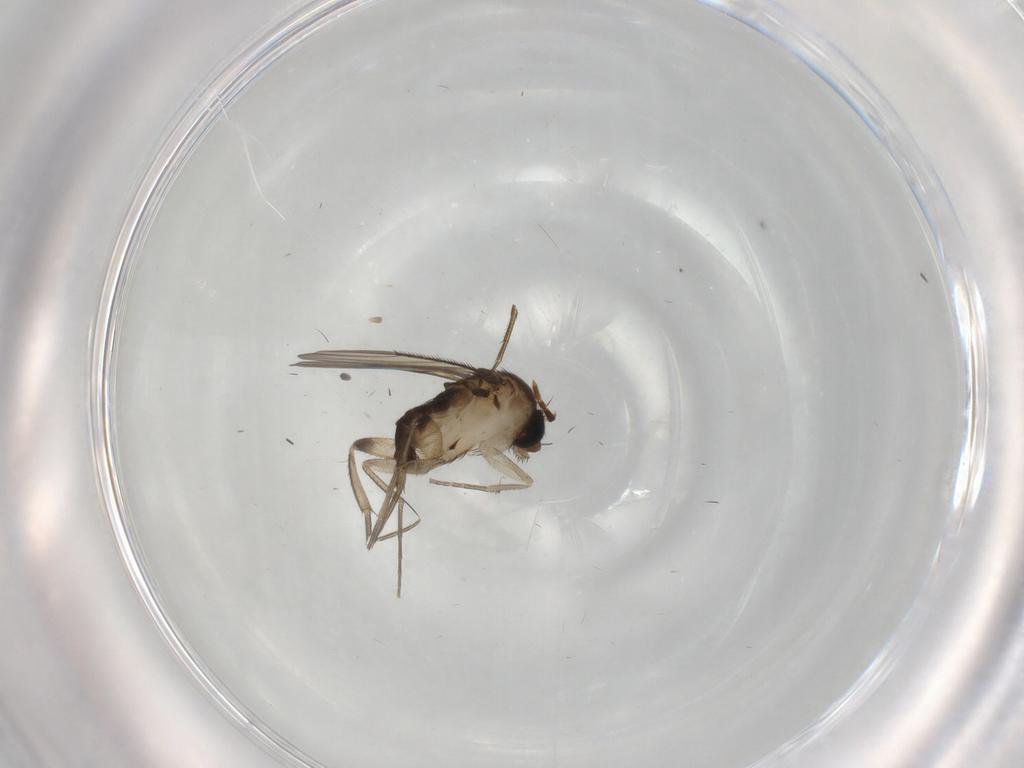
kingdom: Animalia
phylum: Arthropoda
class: Insecta
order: Diptera
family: Phoridae
